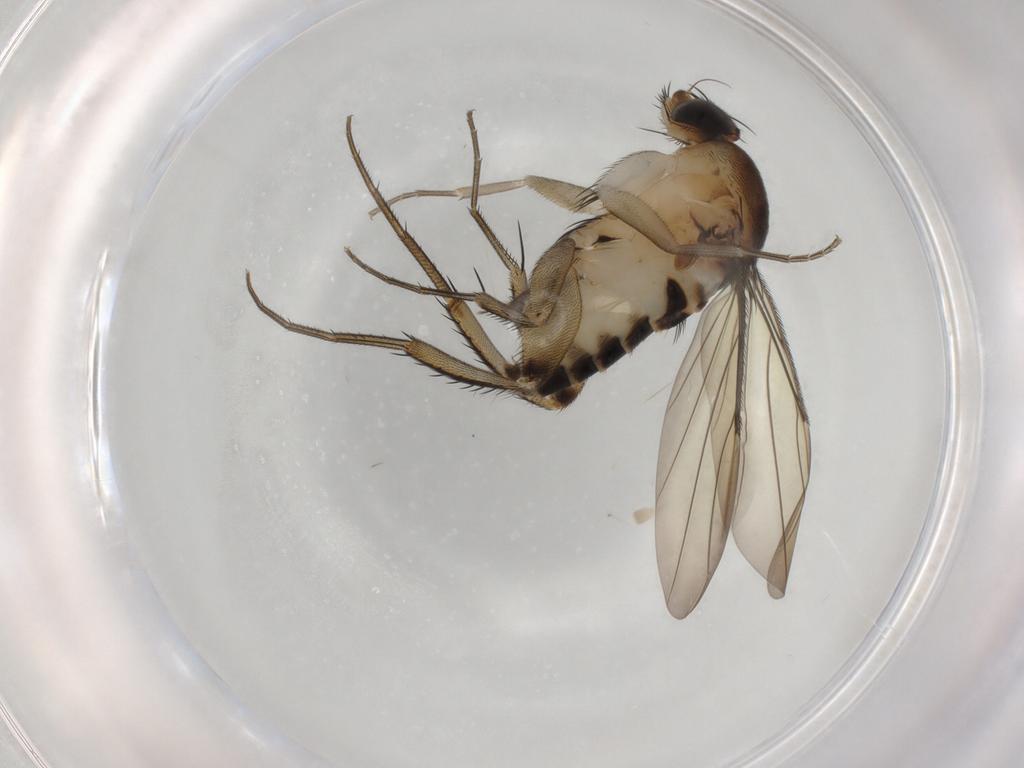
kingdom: Animalia
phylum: Arthropoda
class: Insecta
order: Diptera
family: Phoridae
